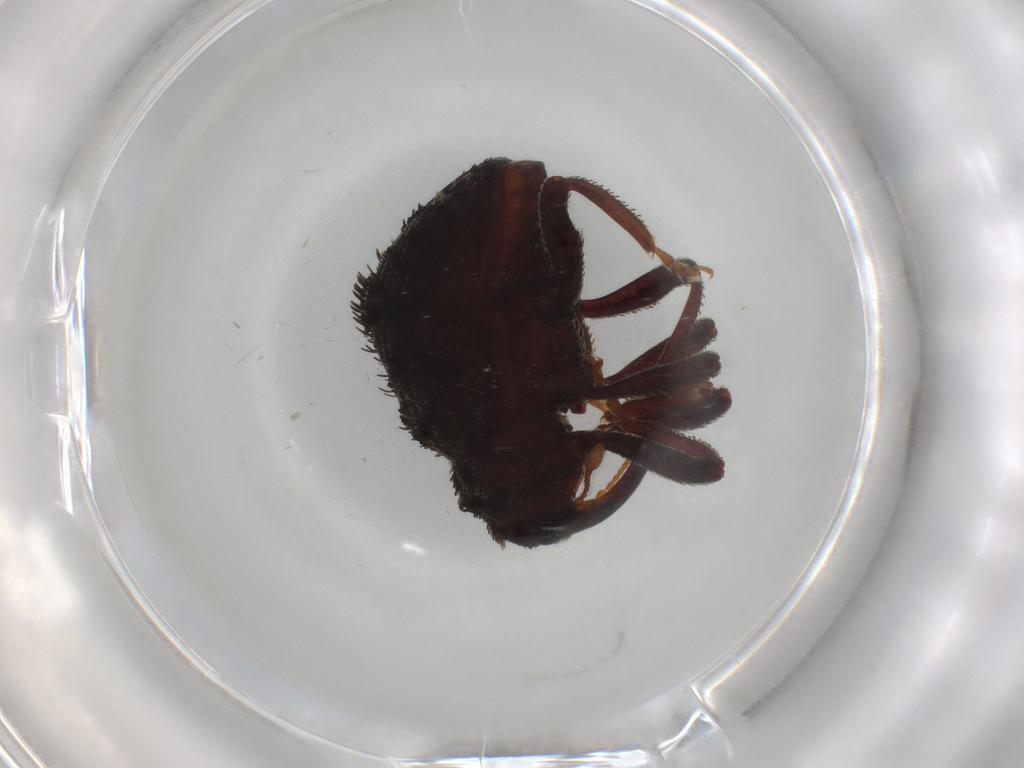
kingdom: Animalia
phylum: Arthropoda
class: Insecta
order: Coleoptera
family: Curculionidae
